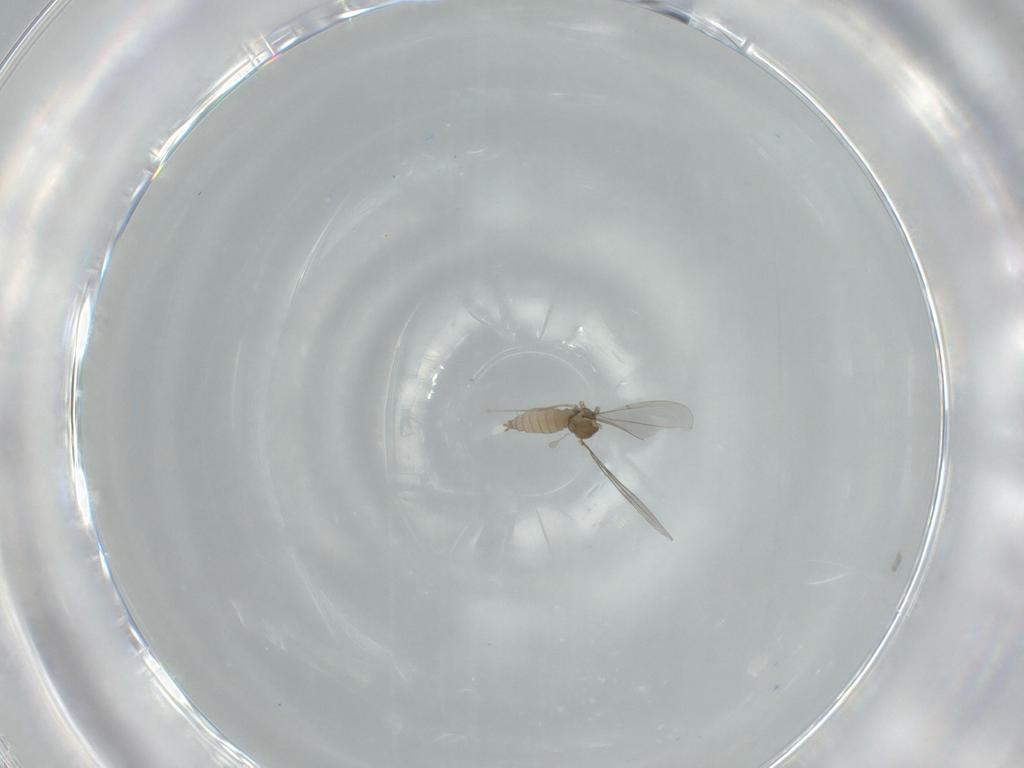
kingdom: Animalia
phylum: Arthropoda
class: Insecta
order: Diptera
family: Cecidomyiidae
